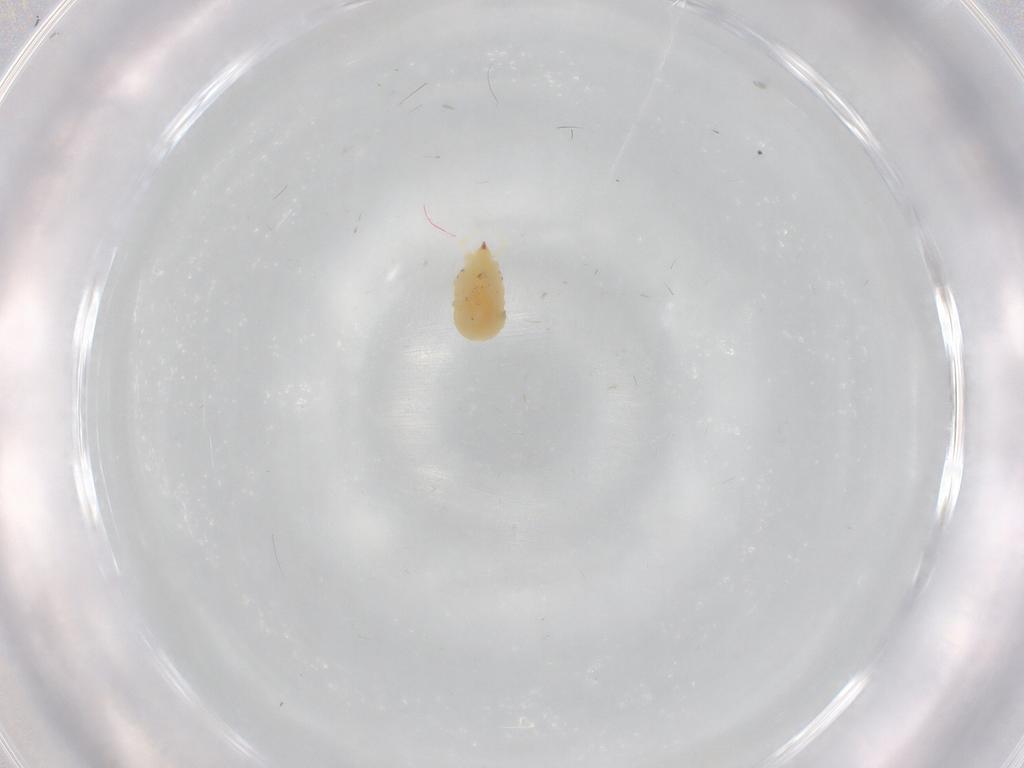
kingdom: Animalia
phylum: Arthropoda
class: Arachnida
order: Trombidiformes
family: Bdellidae
